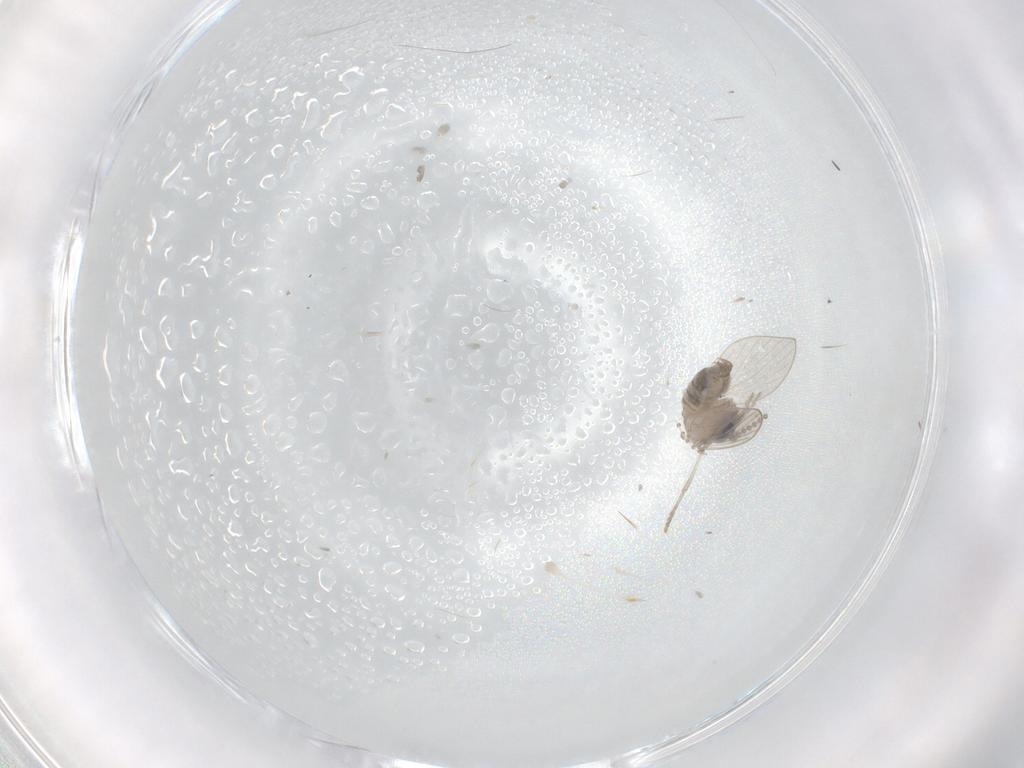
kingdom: Animalia
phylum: Arthropoda
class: Insecta
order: Diptera
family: Psychodidae
